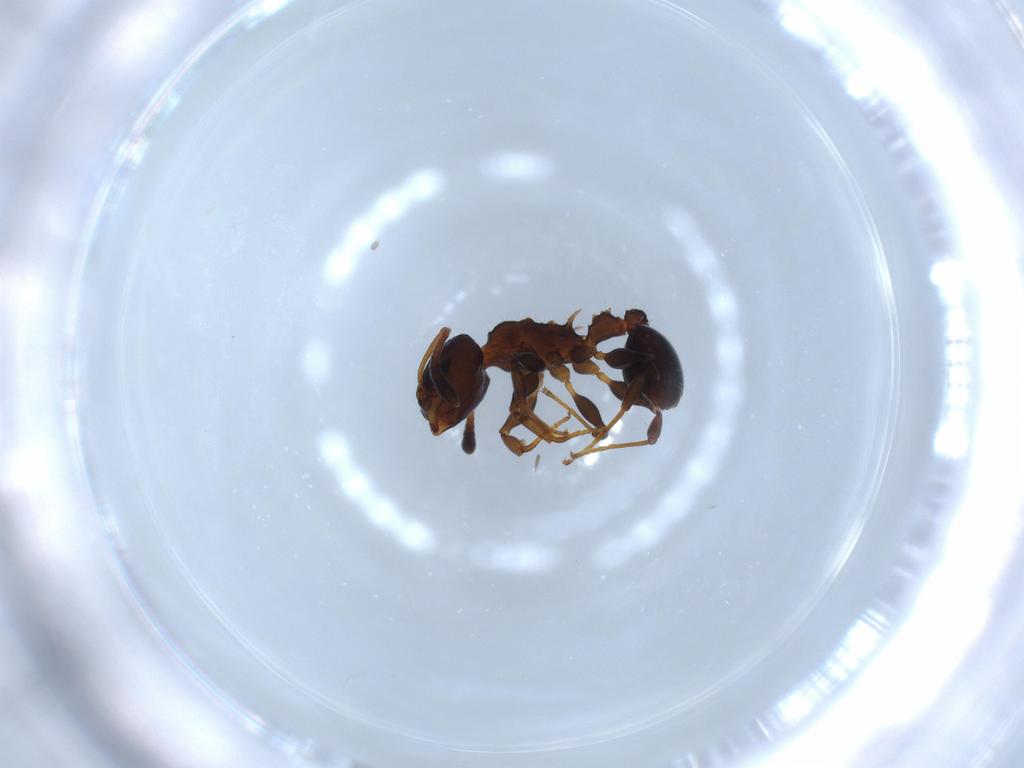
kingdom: Animalia
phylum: Arthropoda
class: Insecta
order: Hymenoptera
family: Formicidae
